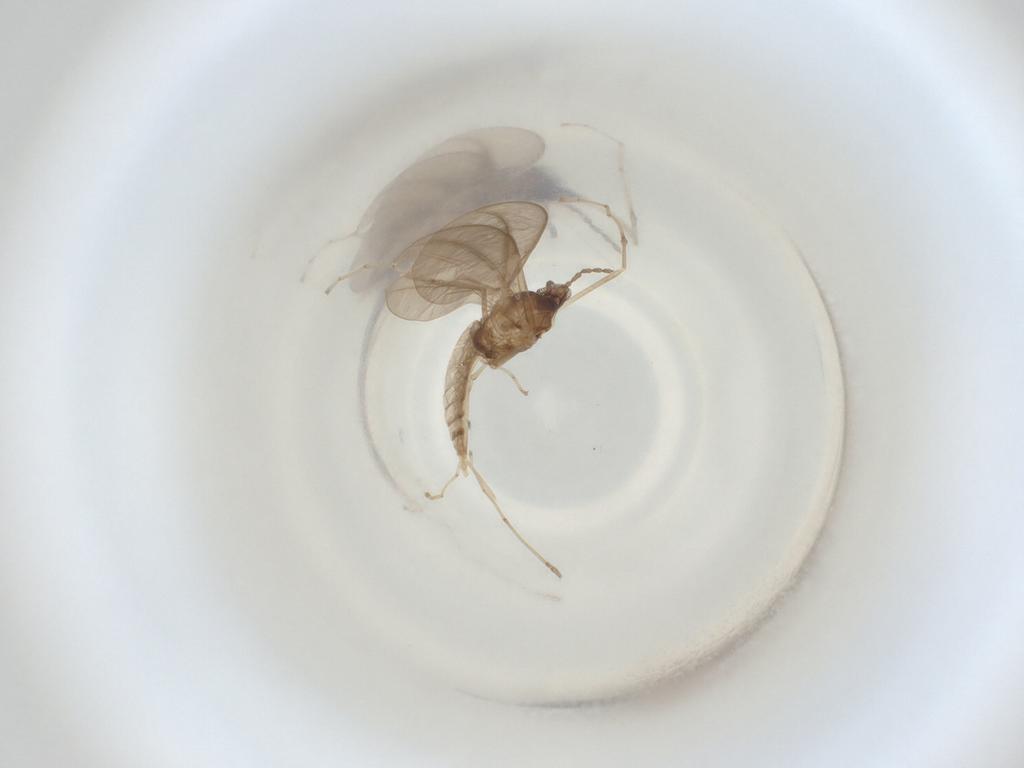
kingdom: Animalia
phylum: Arthropoda
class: Insecta
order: Diptera
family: Cecidomyiidae
